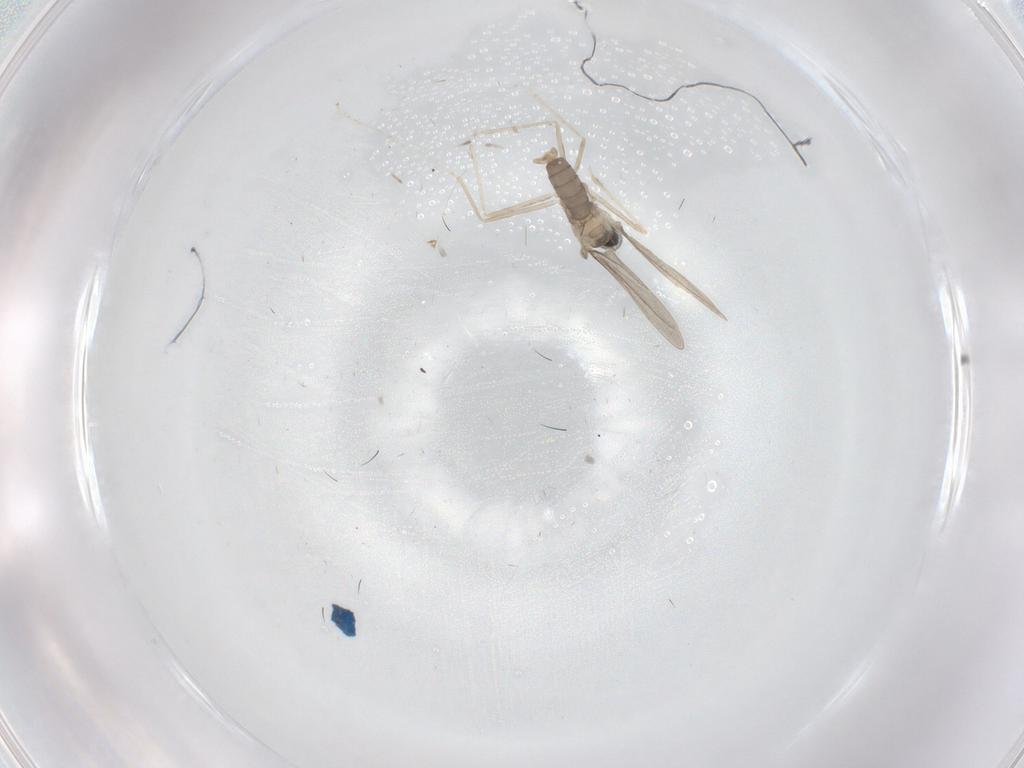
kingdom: Animalia
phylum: Arthropoda
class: Insecta
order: Diptera
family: Cecidomyiidae
